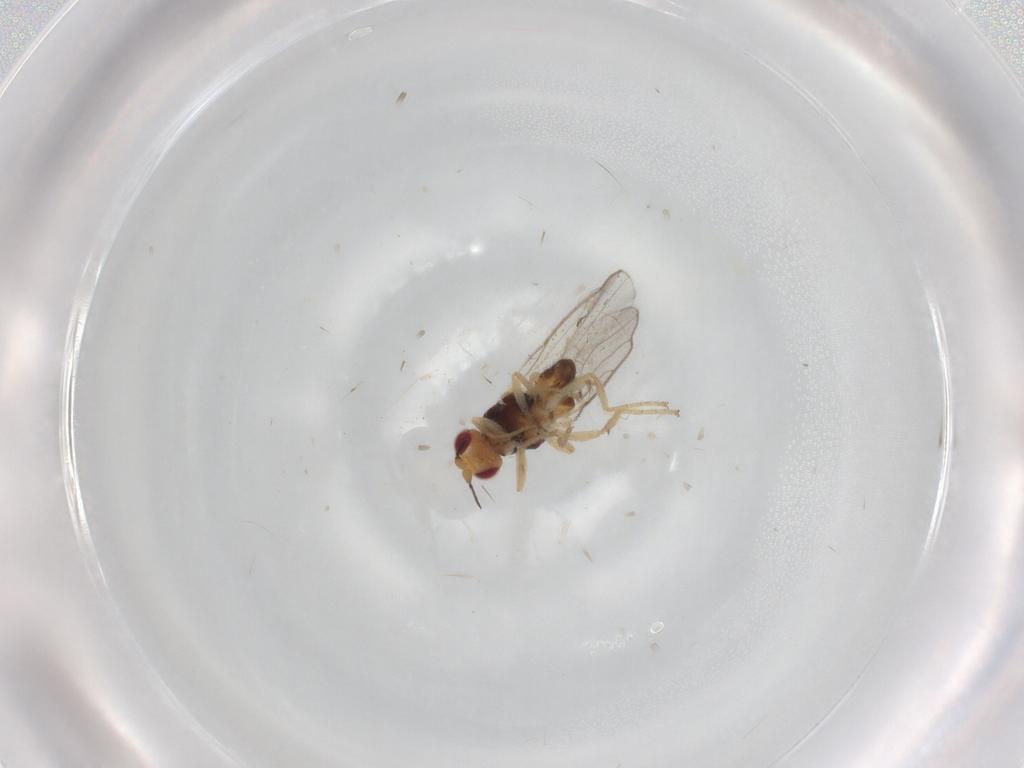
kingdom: Animalia
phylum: Arthropoda
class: Insecta
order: Diptera
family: Chloropidae
